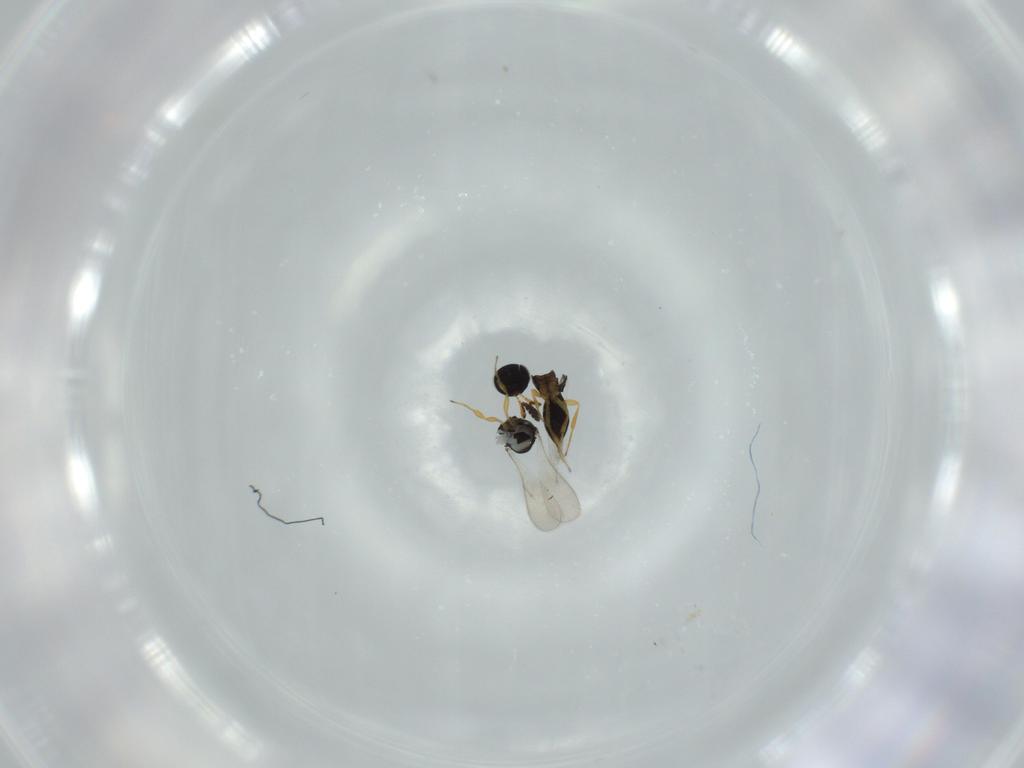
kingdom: Animalia
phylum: Arthropoda
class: Insecta
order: Hymenoptera
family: Scelionidae
